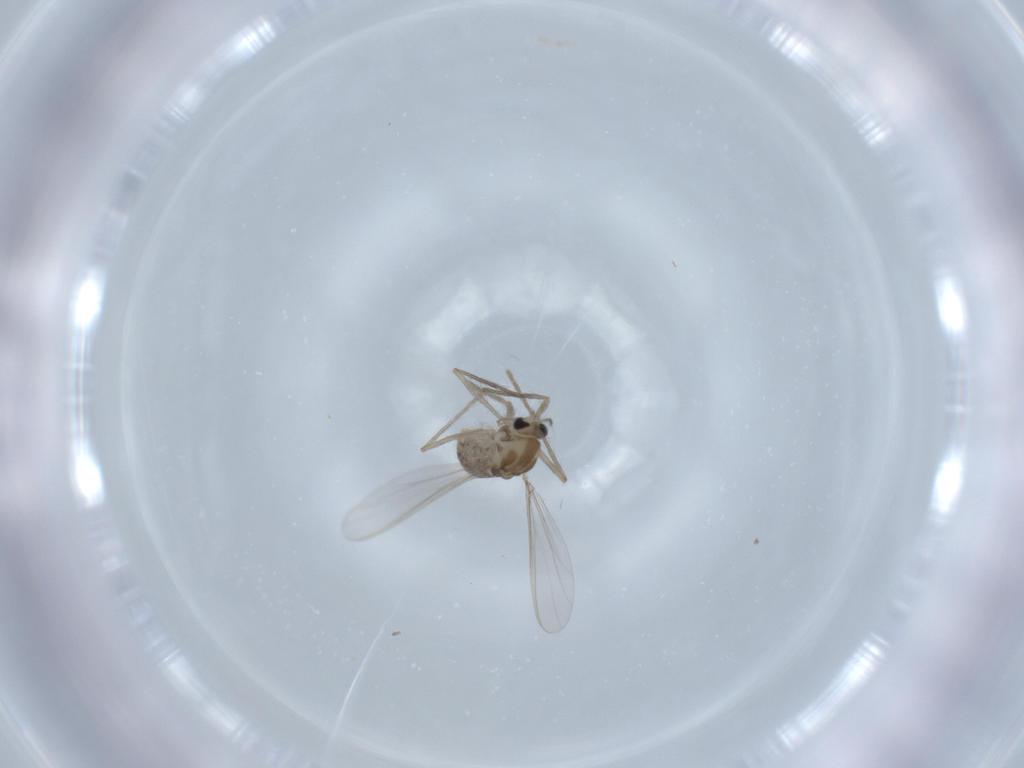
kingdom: Animalia
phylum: Arthropoda
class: Insecta
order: Diptera
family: Chironomidae
